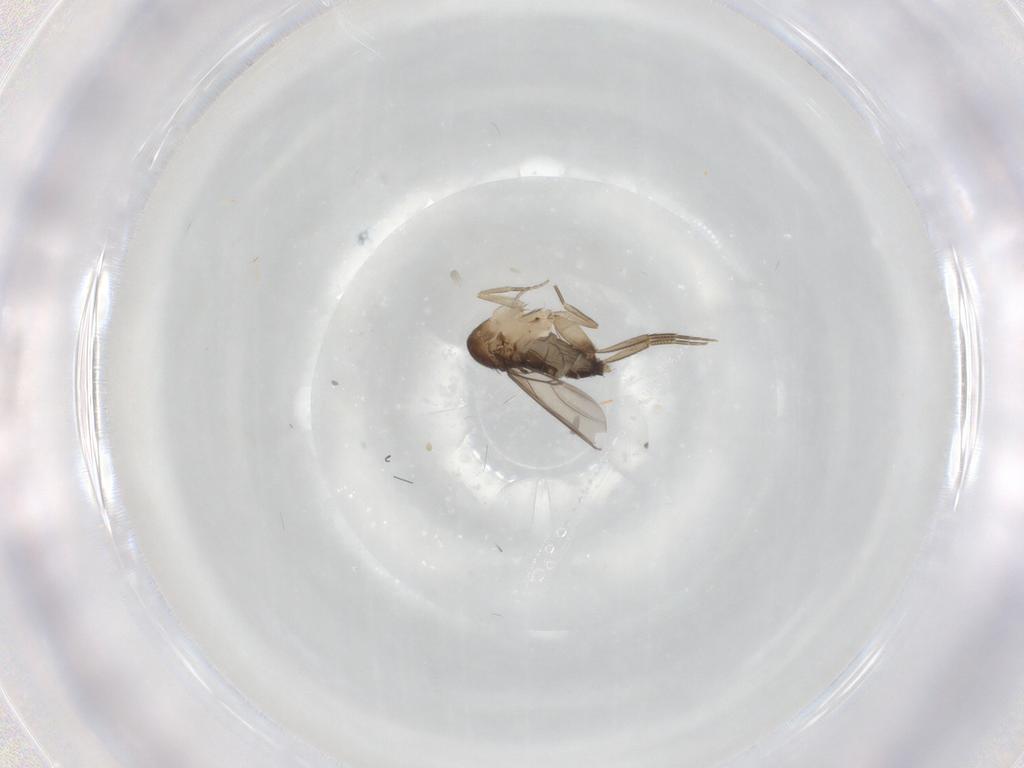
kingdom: Animalia
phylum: Arthropoda
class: Insecta
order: Diptera
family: Phoridae
